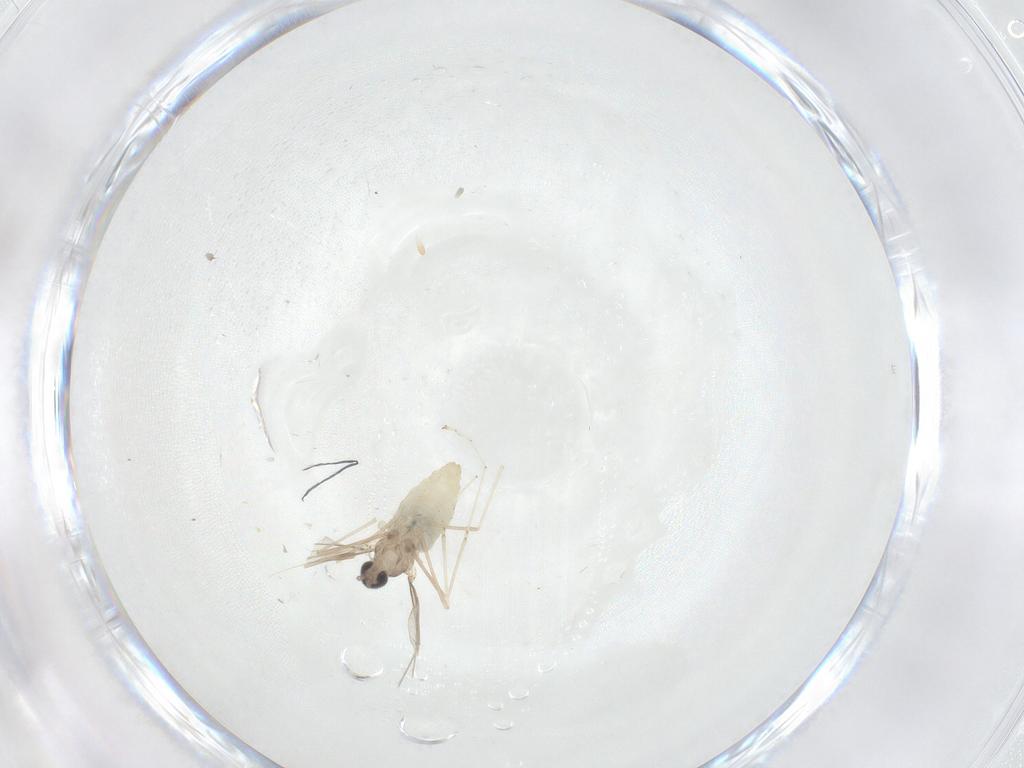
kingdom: Animalia
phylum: Arthropoda
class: Insecta
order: Diptera
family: Cecidomyiidae
